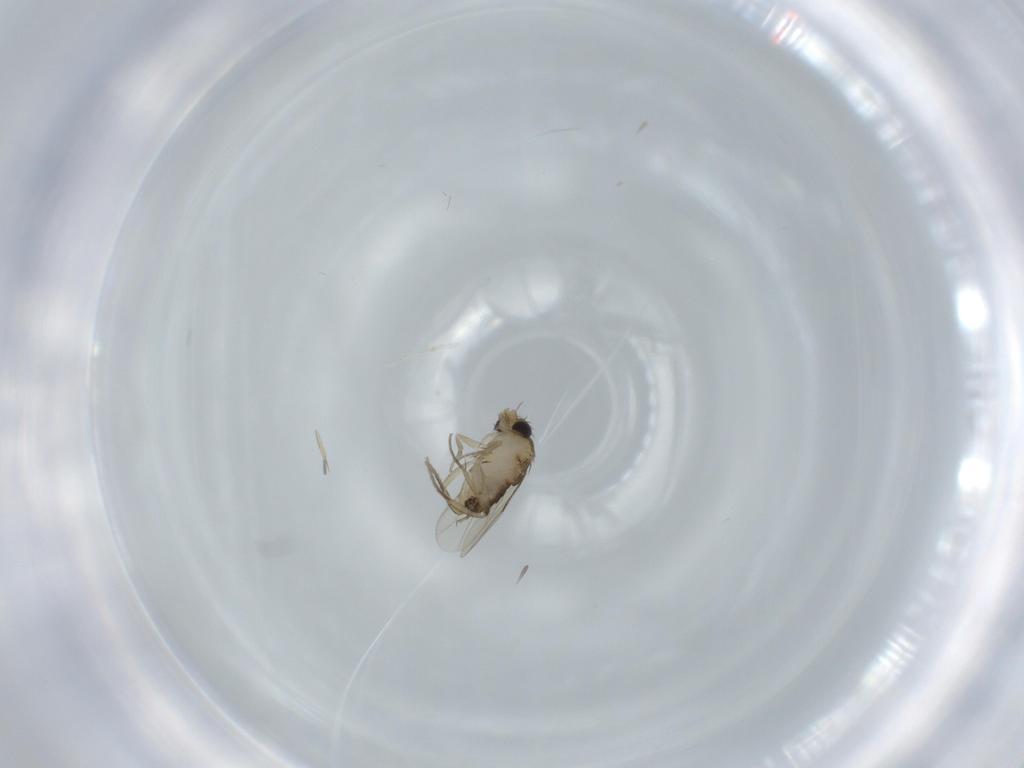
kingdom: Animalia
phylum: Arthropoda
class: Insecta
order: Diptera
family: Phoridae
